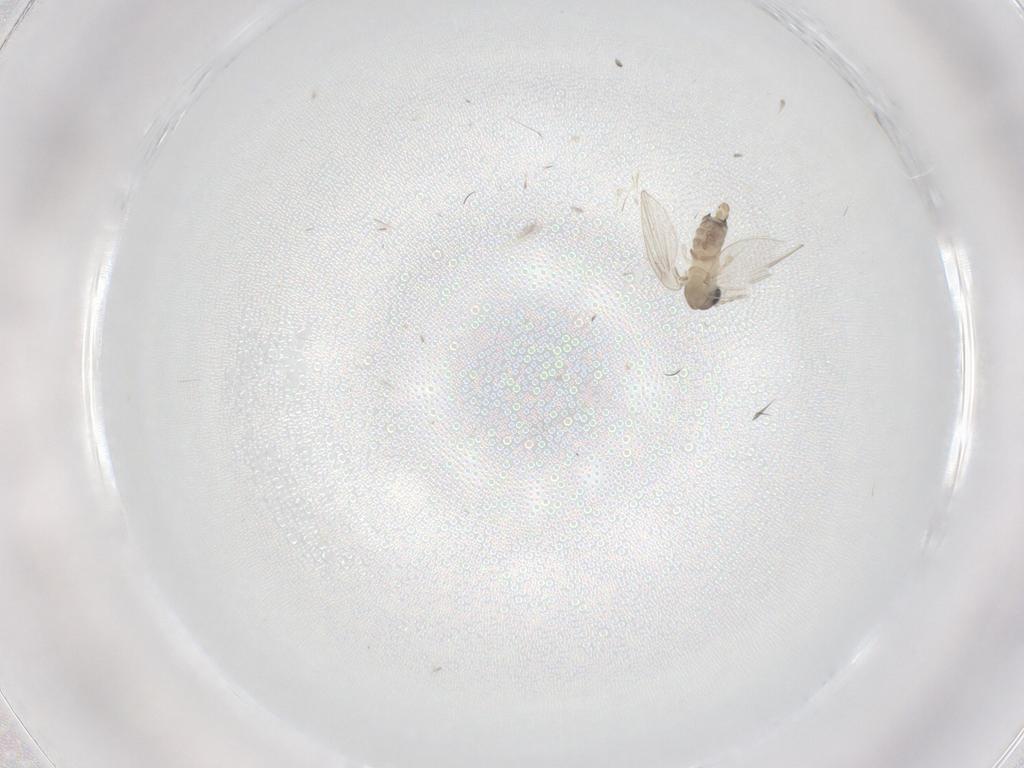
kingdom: Animalia
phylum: Arthropoda
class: Insecta
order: Diptera
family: Psychodidae
